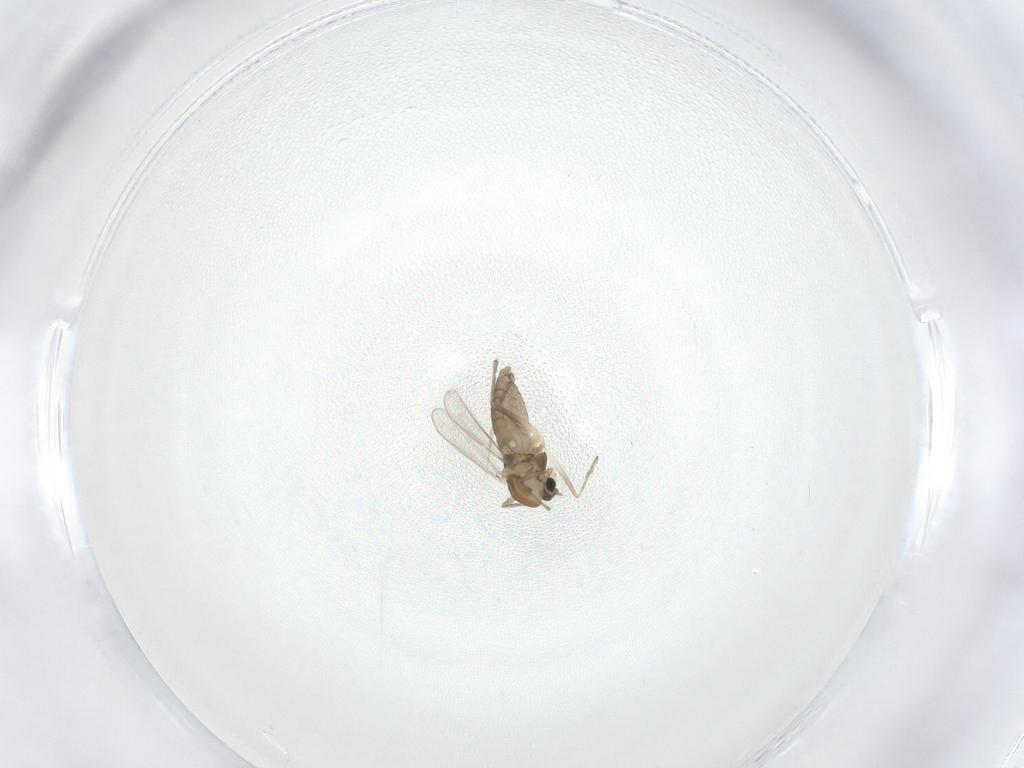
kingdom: Animalia
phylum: Arthropoda
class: Insecta
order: Diptera
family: Chironomidae
